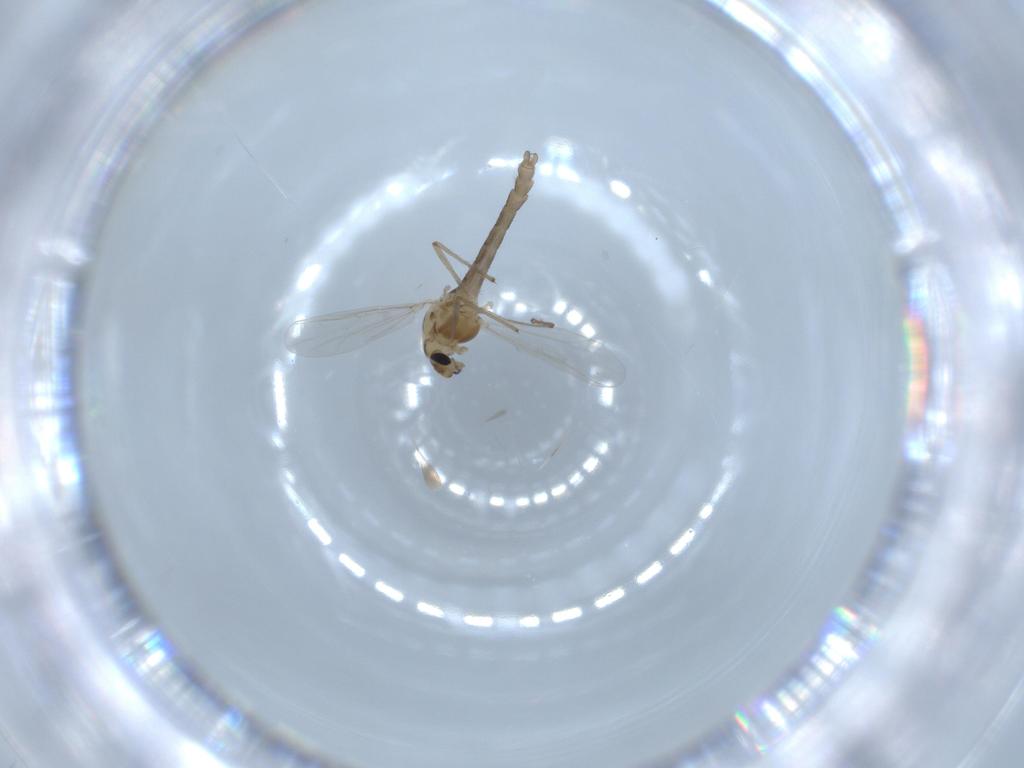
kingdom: Animalia
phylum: Arthropoda
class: Insecta
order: Diptera
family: Chironomidae
